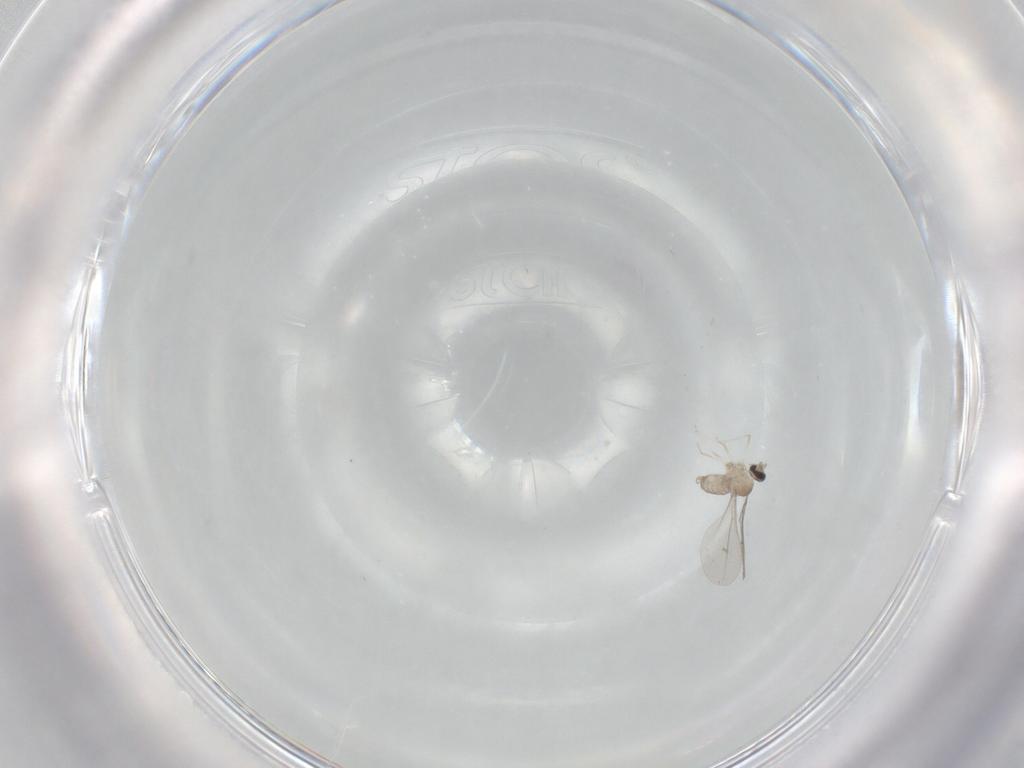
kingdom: Animalia
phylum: Arthropoda
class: Insecta
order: Diptera
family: Cecidomyiidae
